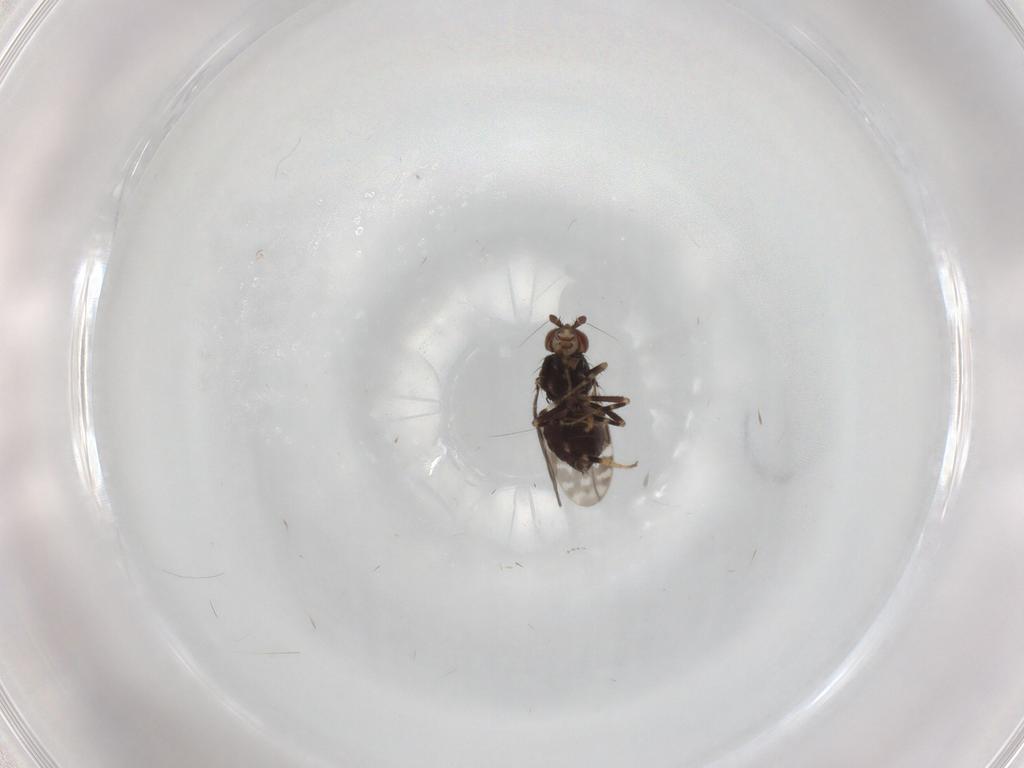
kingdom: Animalia
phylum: Arthropoda
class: Insecta
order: Diptera
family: Sphaeroceridae
